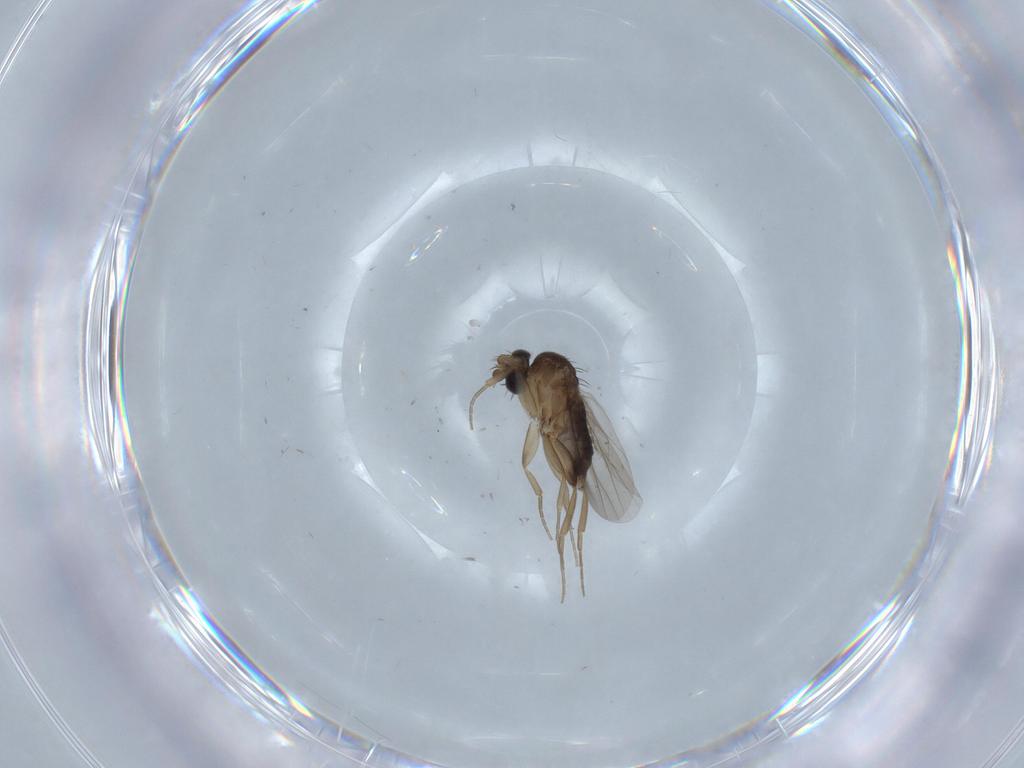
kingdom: Animalia
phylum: Arthropoda
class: Insecta
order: Diptera
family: Phoridae
